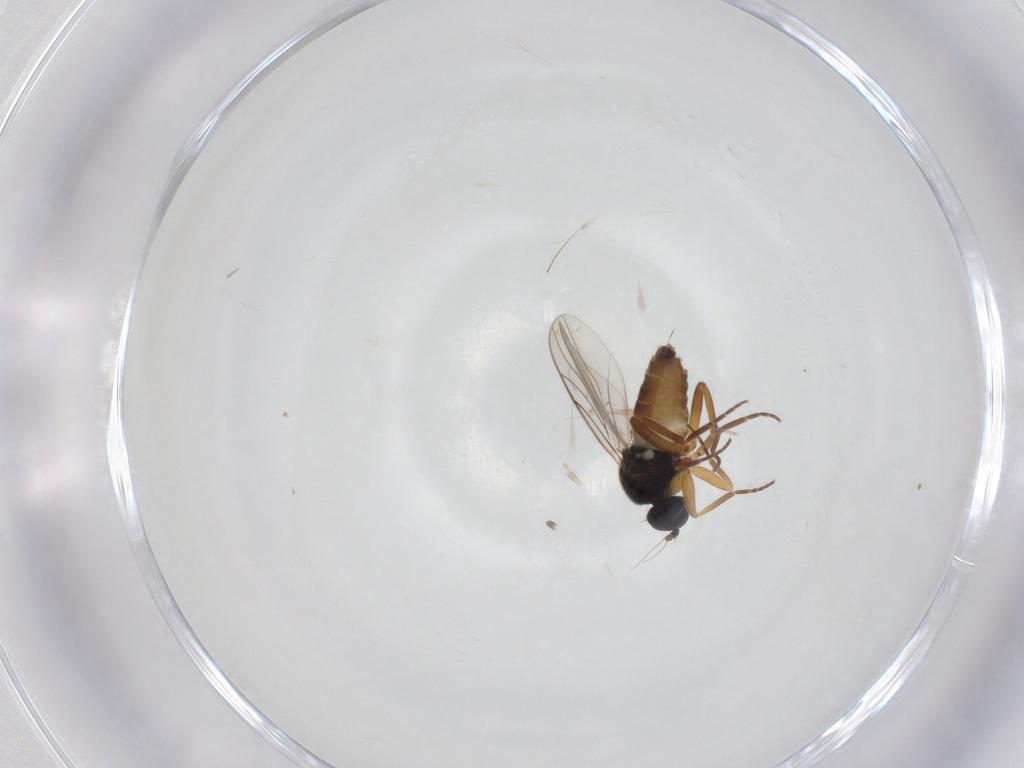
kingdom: Animalia
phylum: Arthropoda
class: Insecta
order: Diptera
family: Hybotidae
